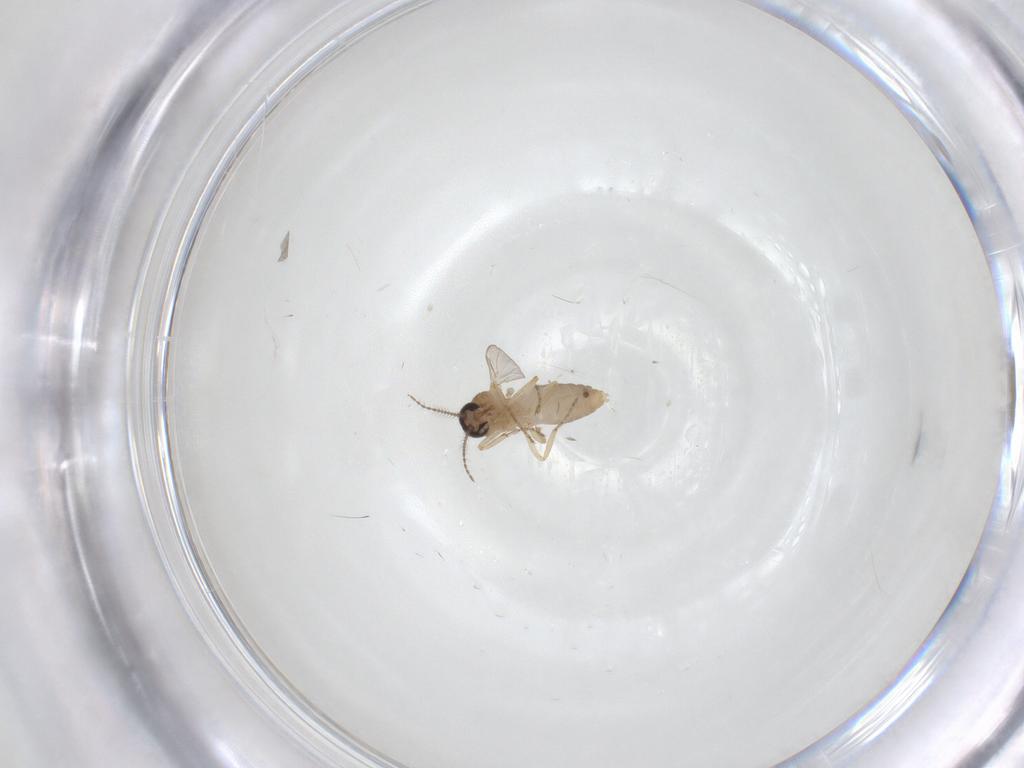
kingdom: Animalia
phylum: Arthropoda
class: Insecta
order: Diptera
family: Ceratopogonidae
